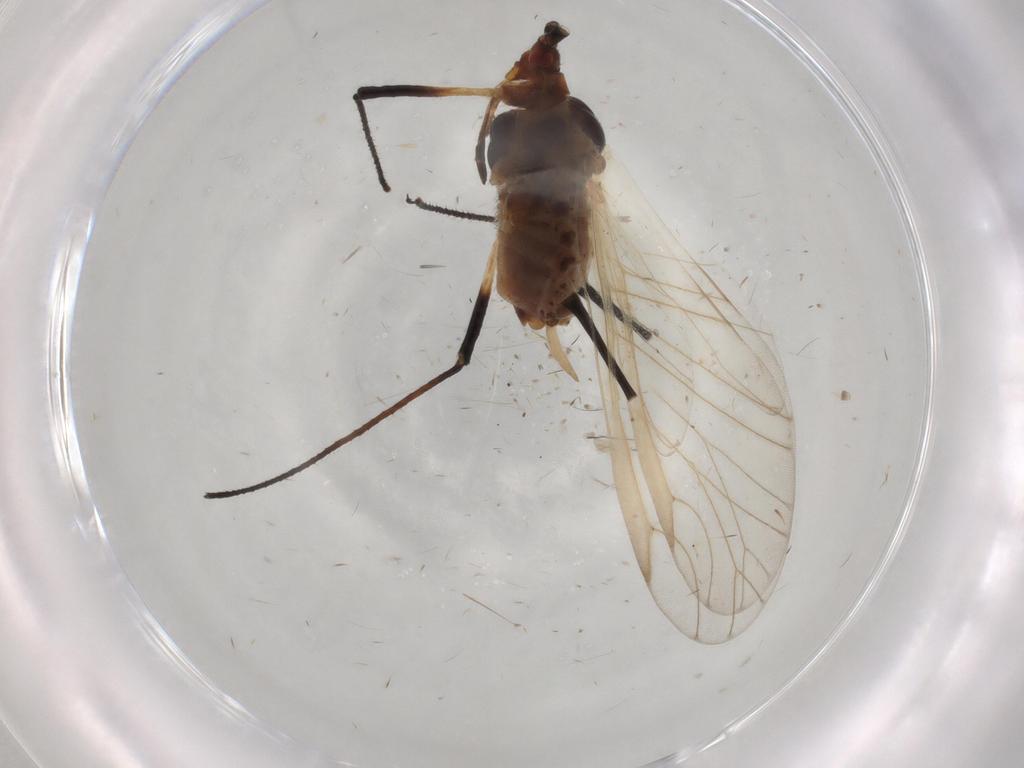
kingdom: Animalia
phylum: Arthropoda
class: Insecta
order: Hemiptera
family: Aphididae
